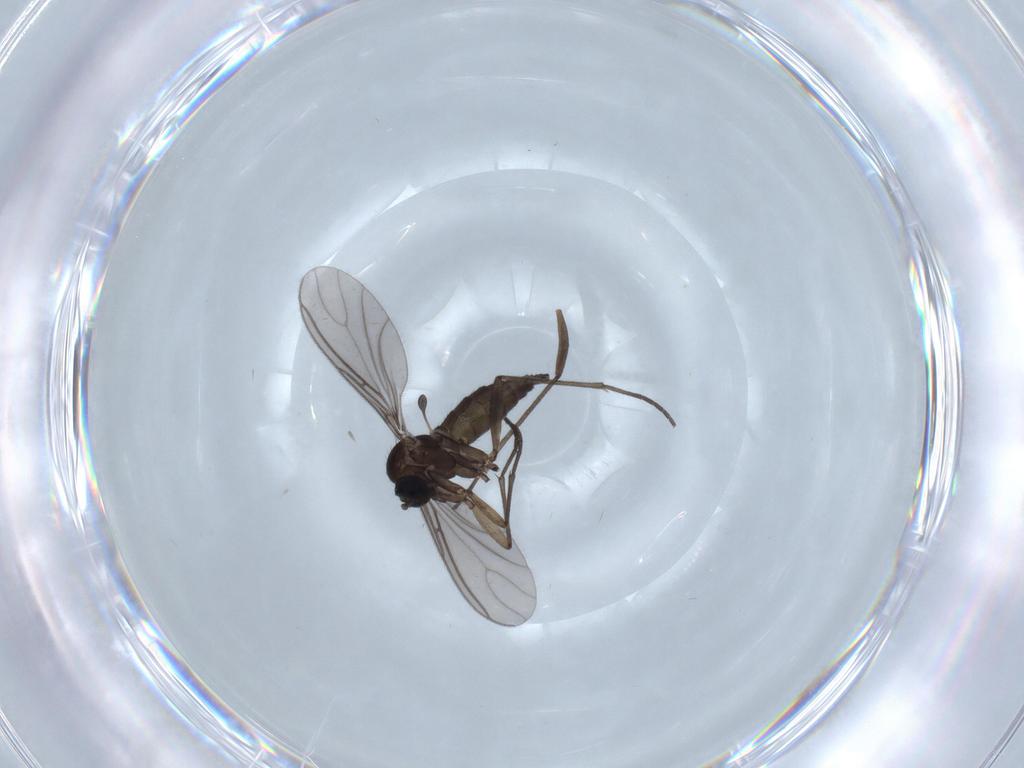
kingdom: Animalia
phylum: Arthropoda
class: Insecta
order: Diptera
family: Sciaridae
